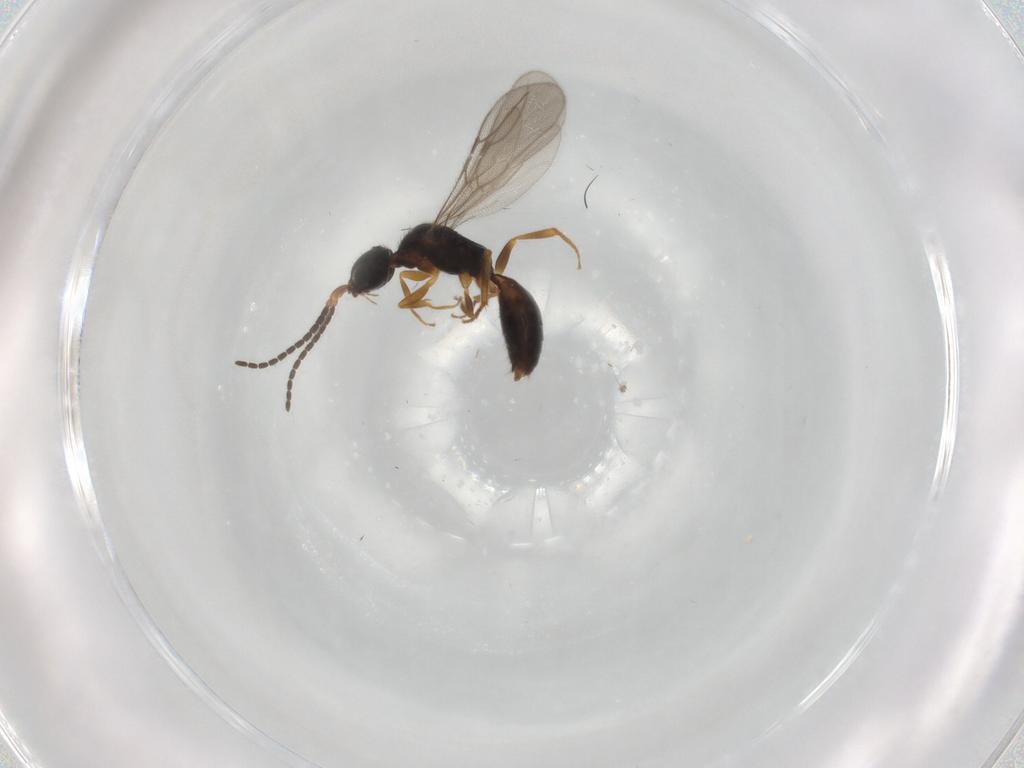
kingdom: Animalia
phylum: Arthropoda
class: Insecta
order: Hymenoptera
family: Bethylidae
